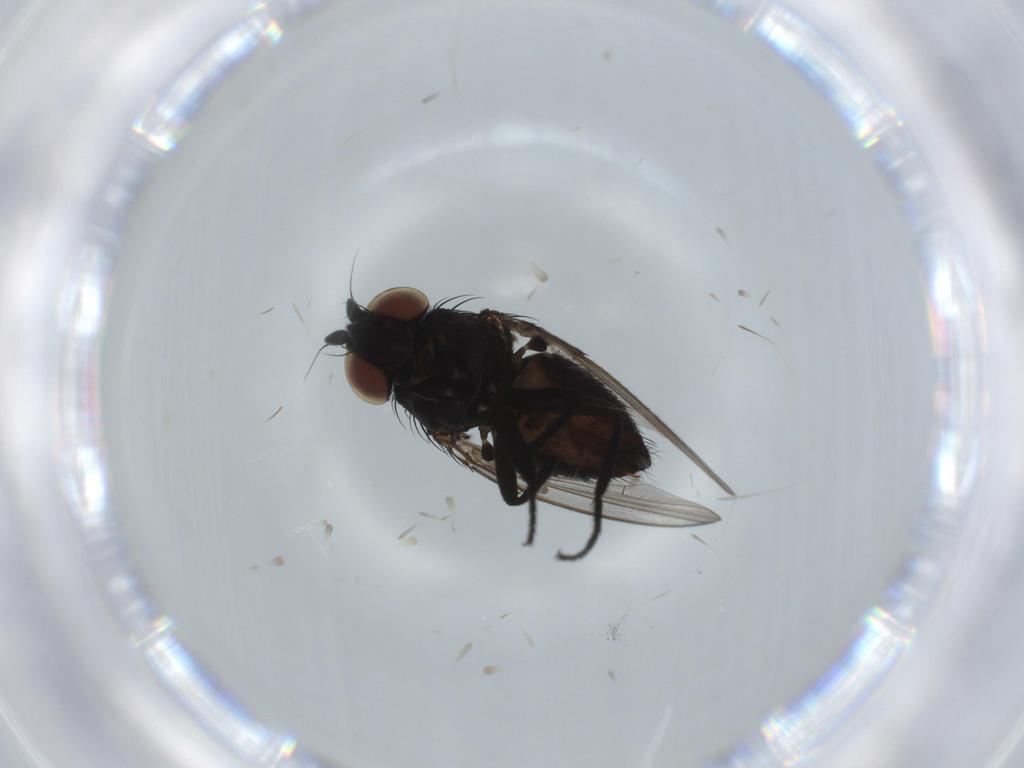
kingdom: Animalia
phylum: Arthropoda
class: Insecta
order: Diptera
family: Milichiidae
